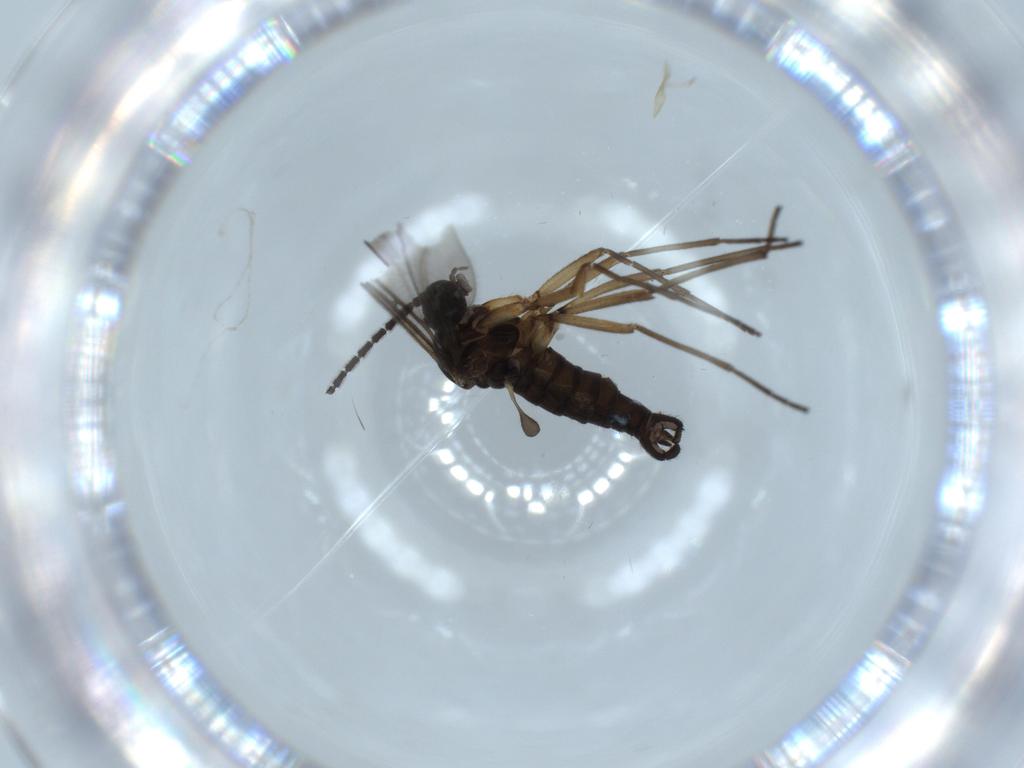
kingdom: Animalia
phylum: Arthropoda
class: Insecta
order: Diptera
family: Sciaridae
